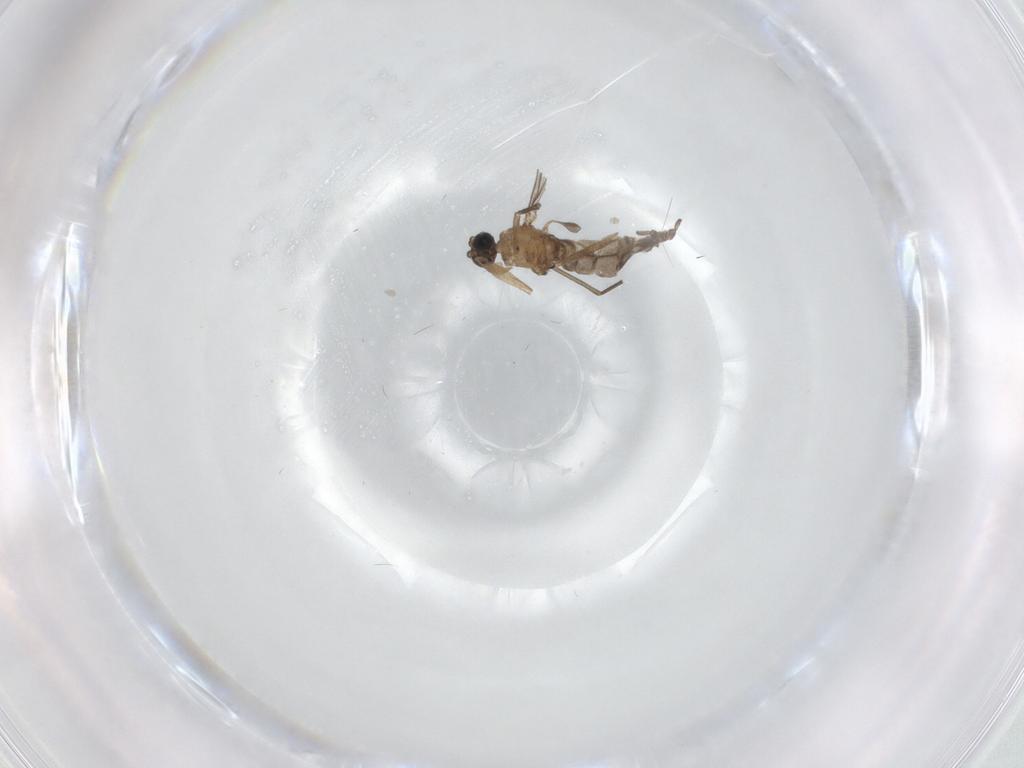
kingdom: Animalia
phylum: Arthropoda
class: Insecta
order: Diptera
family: Sciaridae
